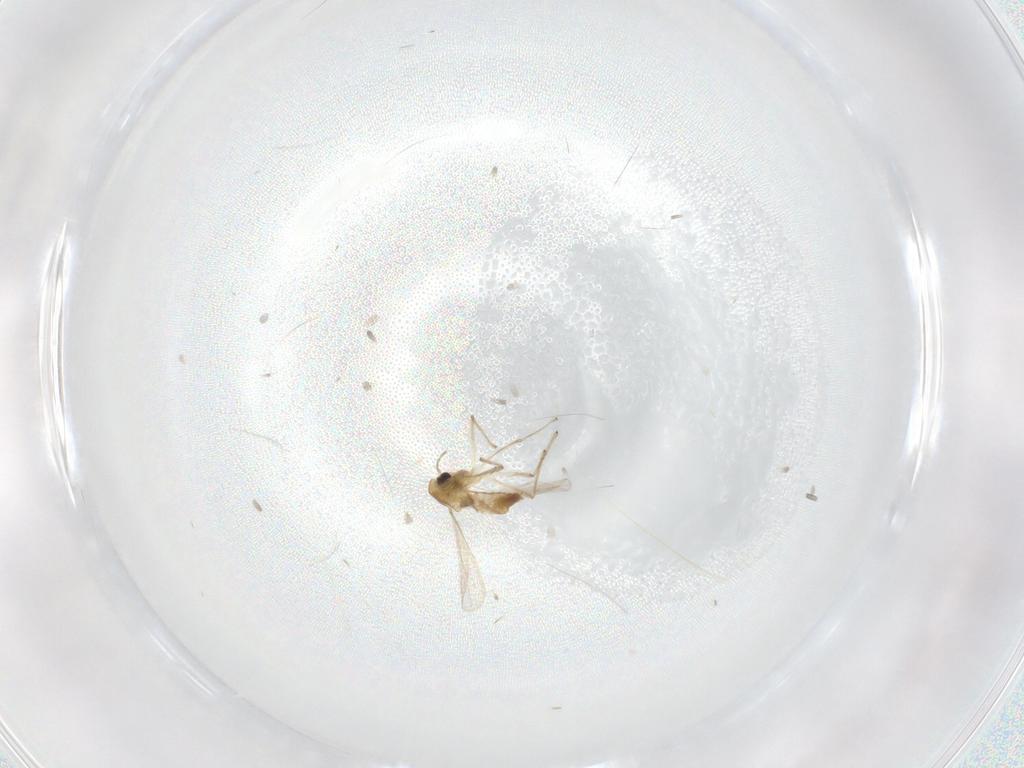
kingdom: Animalia
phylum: Arthropoda
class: Insecta
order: Diptera
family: Chironomidae
